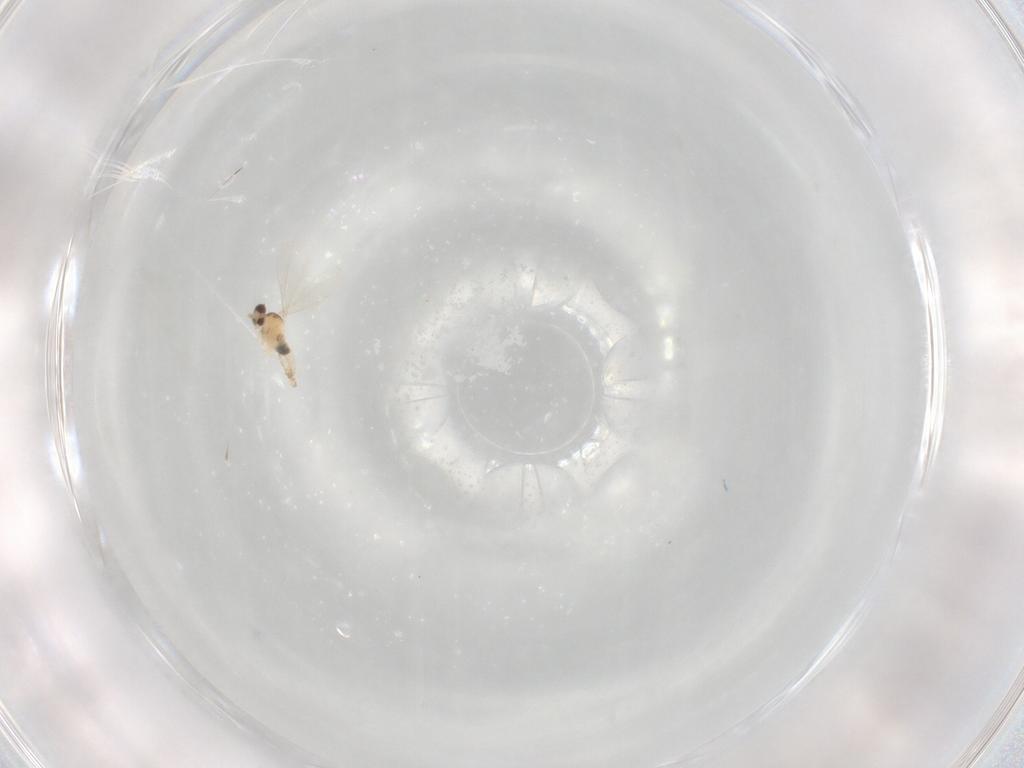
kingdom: Animalia
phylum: Arthropoda
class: Insecta
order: Diptera
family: Cecidomyiidae
